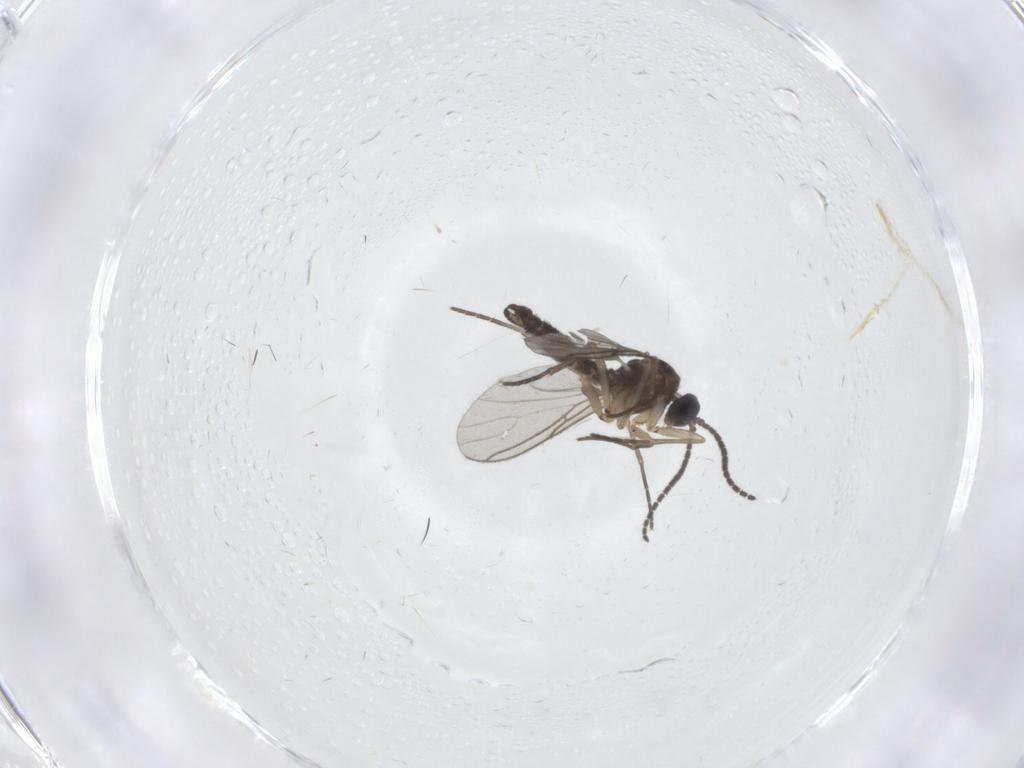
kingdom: Animalia
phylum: Arthropoda
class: Insecta
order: Diptera
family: Sciaridae
